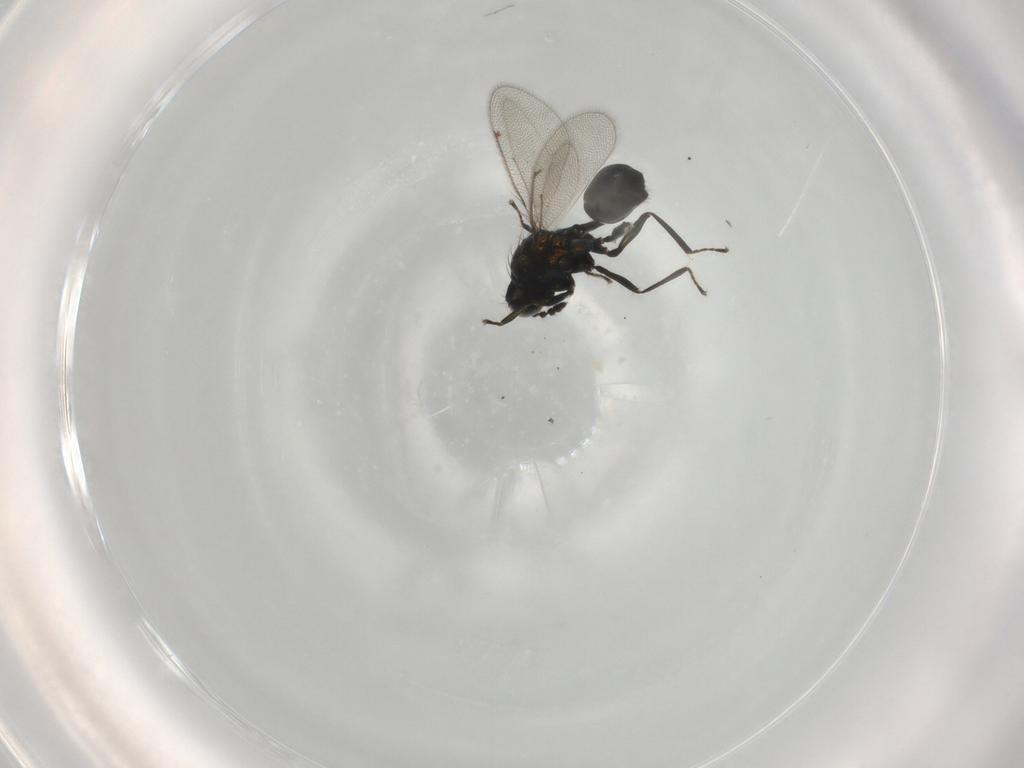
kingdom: Animalia
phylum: Arthropoda
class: Insecta
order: Hymenoptera
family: Eulophidae
